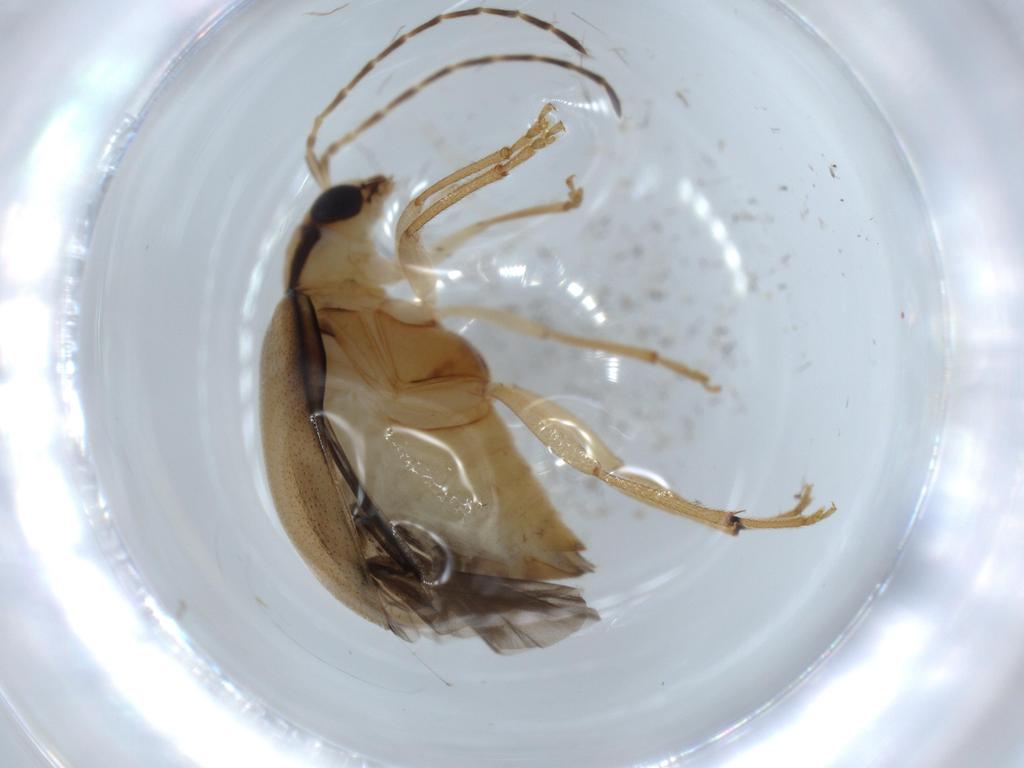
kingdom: Animalia
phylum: Arthropoda
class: Insecta
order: Coleoptera
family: Chrysomelidae
